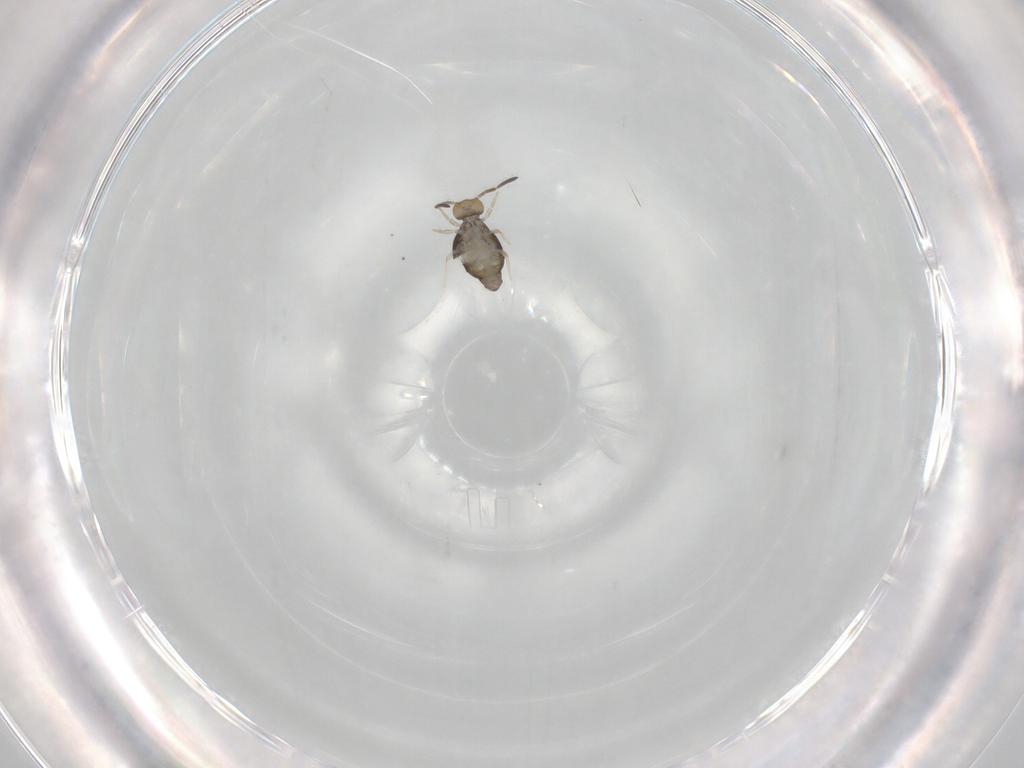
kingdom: Animalia
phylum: Arthropoda
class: Collembola
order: Symphypleona
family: Katiannidae
